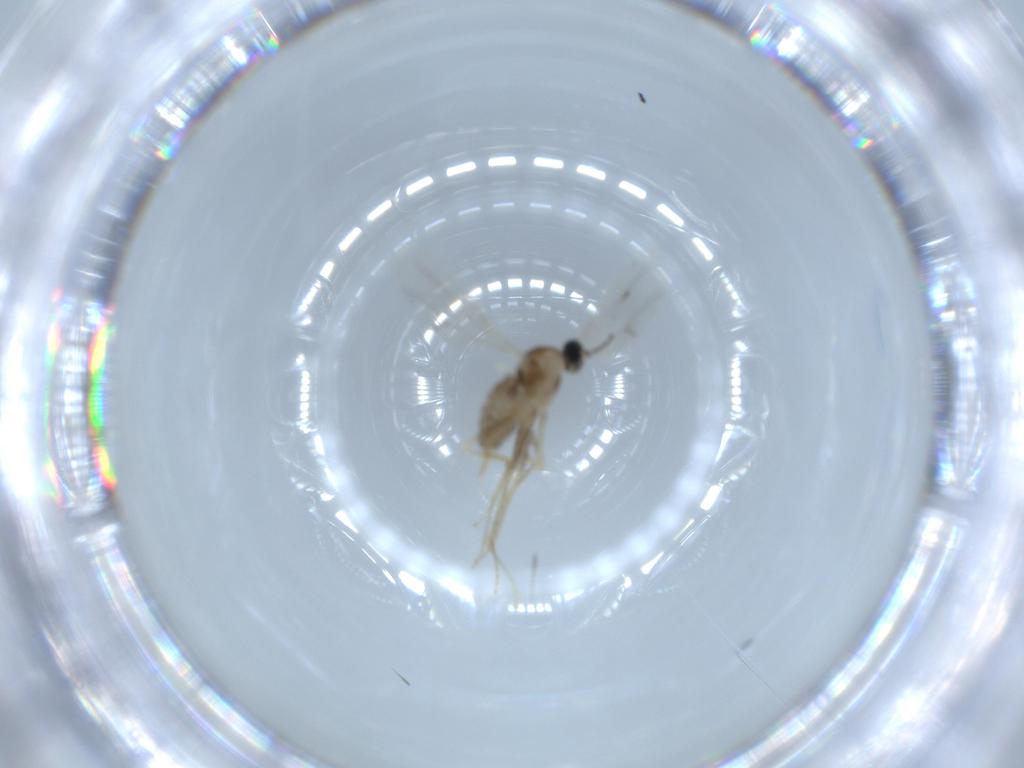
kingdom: Animalia
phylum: Arthropoda
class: Insecta
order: Diptera
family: Cecidomyiidae
